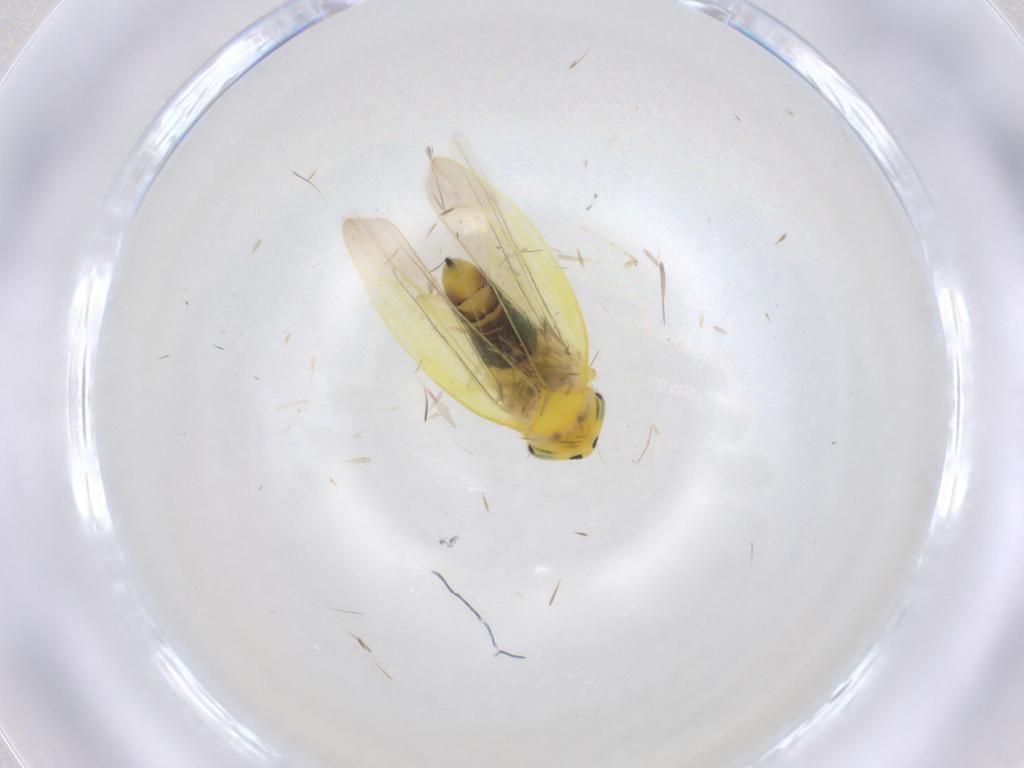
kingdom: Animalia
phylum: Arthropoda
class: Insecta
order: Hemiptera
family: Cicadellidae
